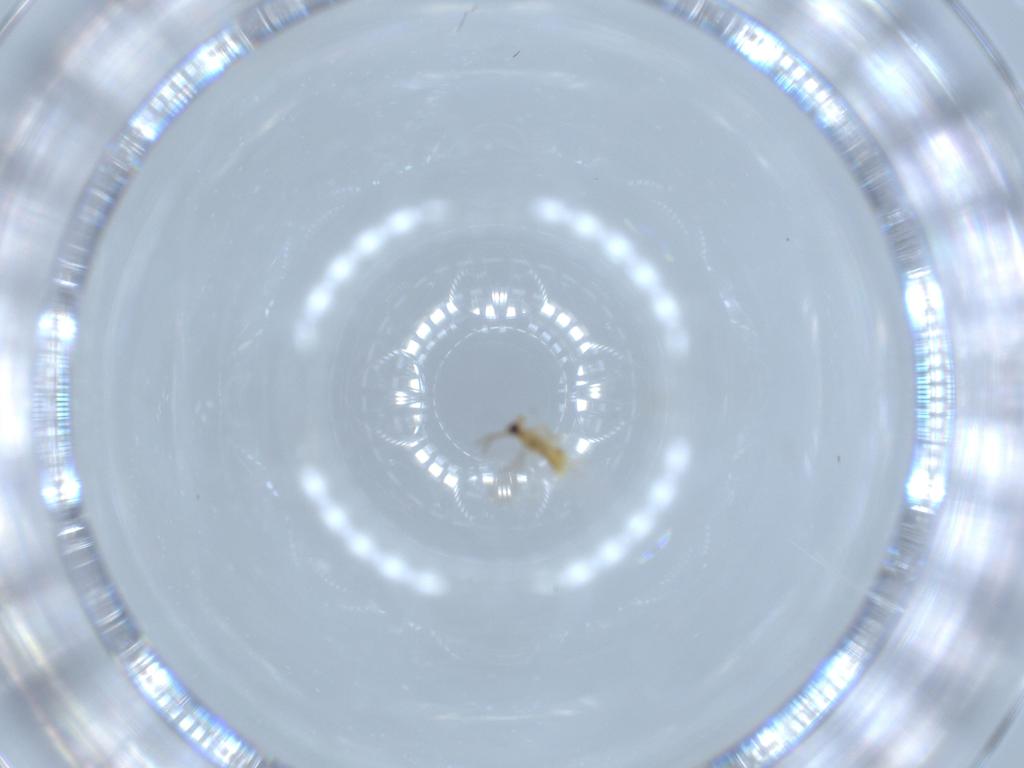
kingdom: Animalia
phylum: Arthropoda
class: Insecta
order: Hymenoptera
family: Aphelinidae
